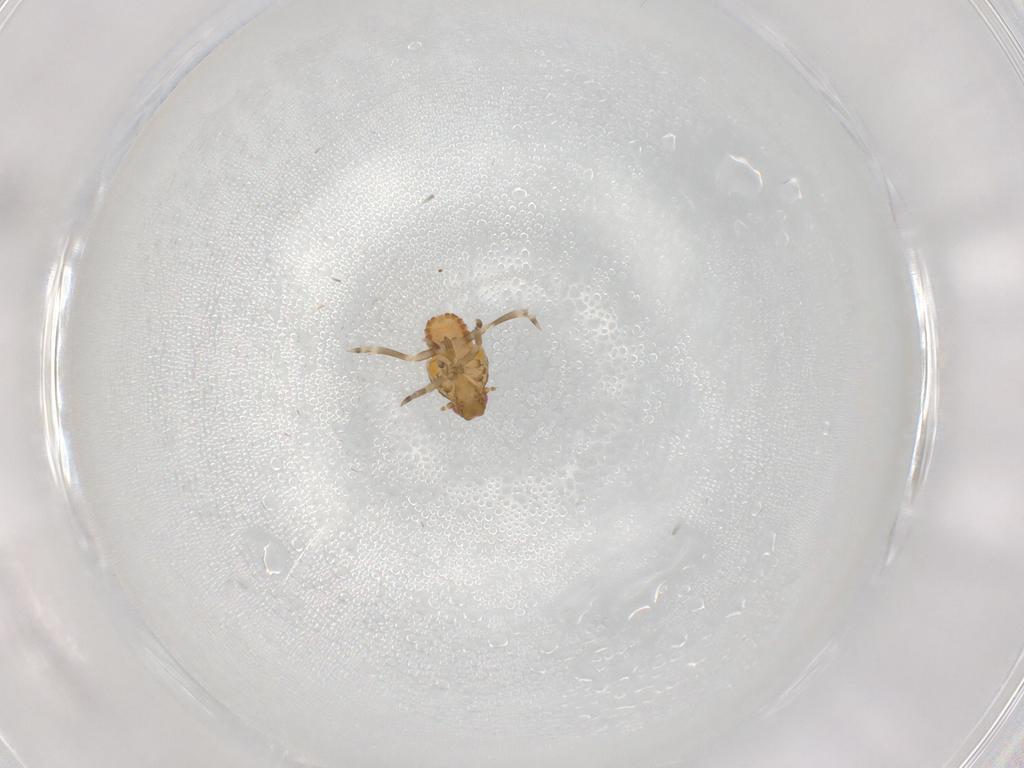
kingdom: Animalia
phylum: Arthropoda
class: Insecta
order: Hemiptera
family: Flatidae
